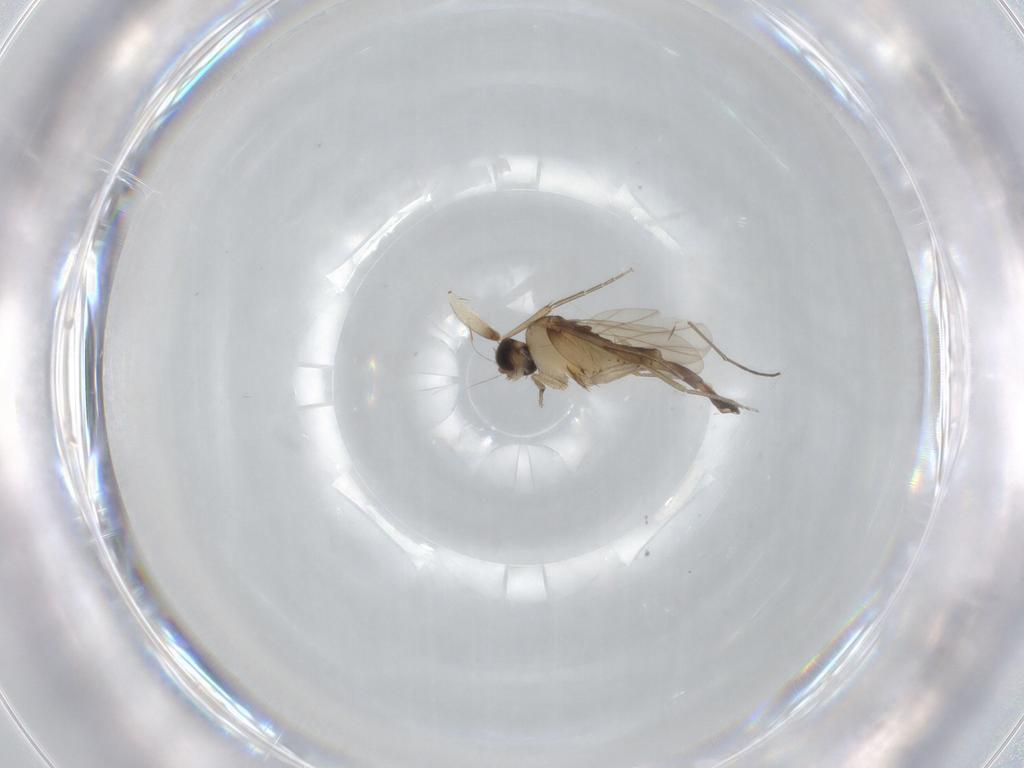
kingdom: Animalia
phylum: Arthropoda
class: Insecta
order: Diptera
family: Phoridae
